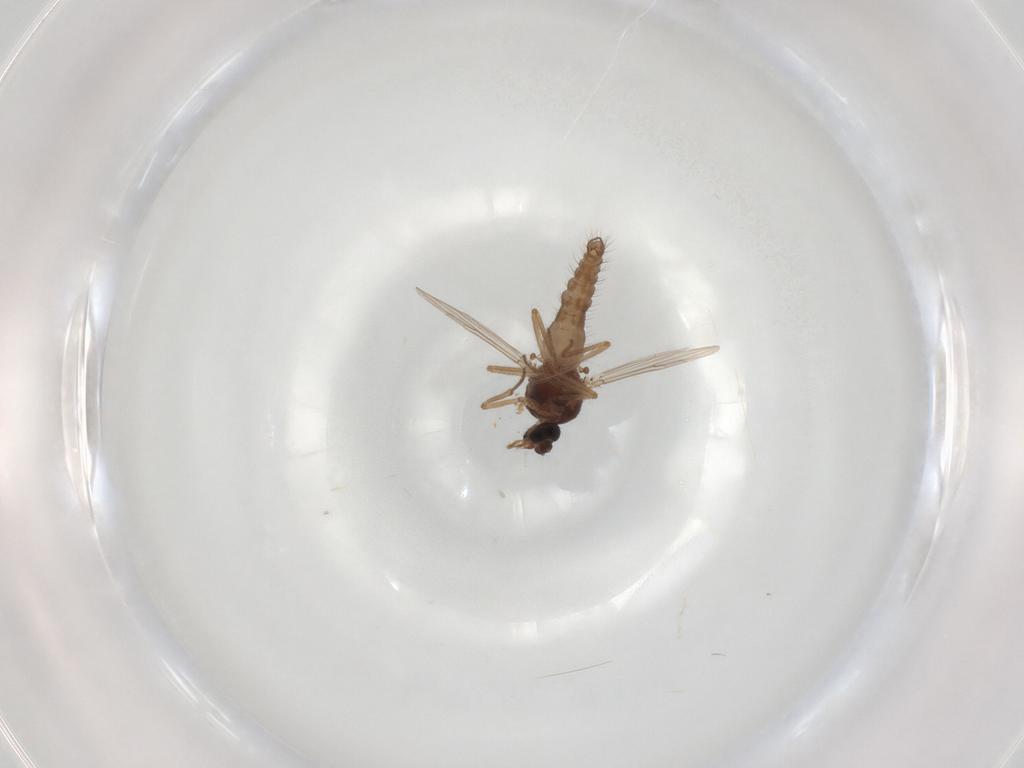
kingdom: Animalia
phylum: Arthropoda
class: Insecta
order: Diptera
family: Ceratopogonidae
